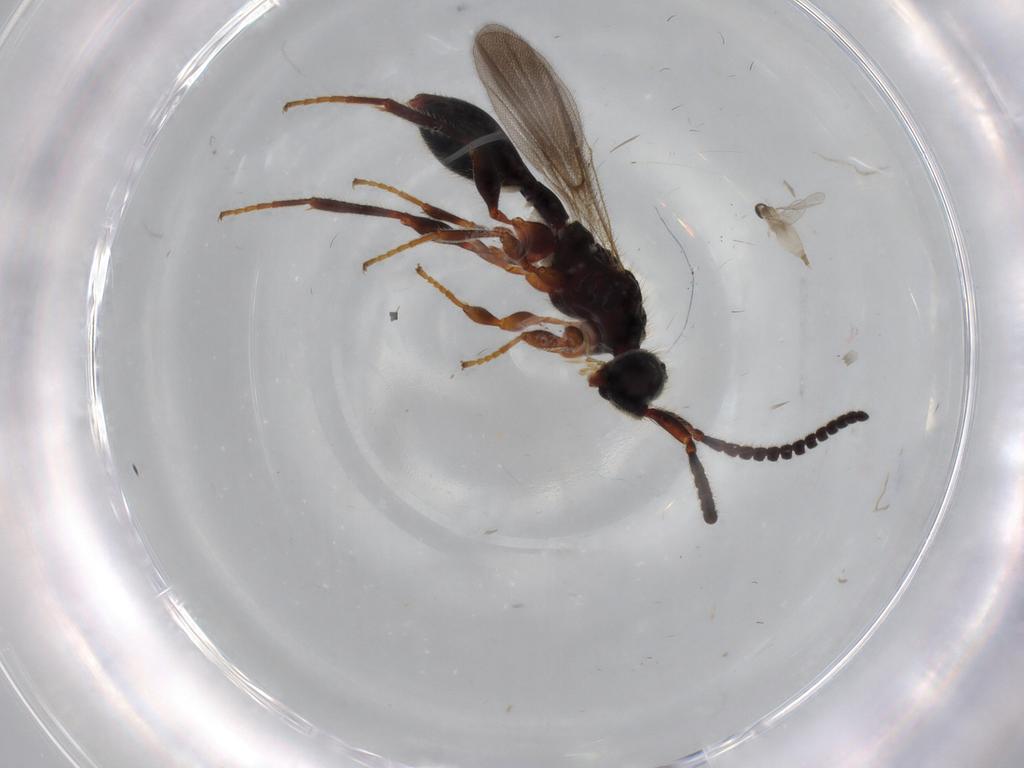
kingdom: Animalia
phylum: Arthropoda
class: Insecta
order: Diptera
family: Chironomidae
